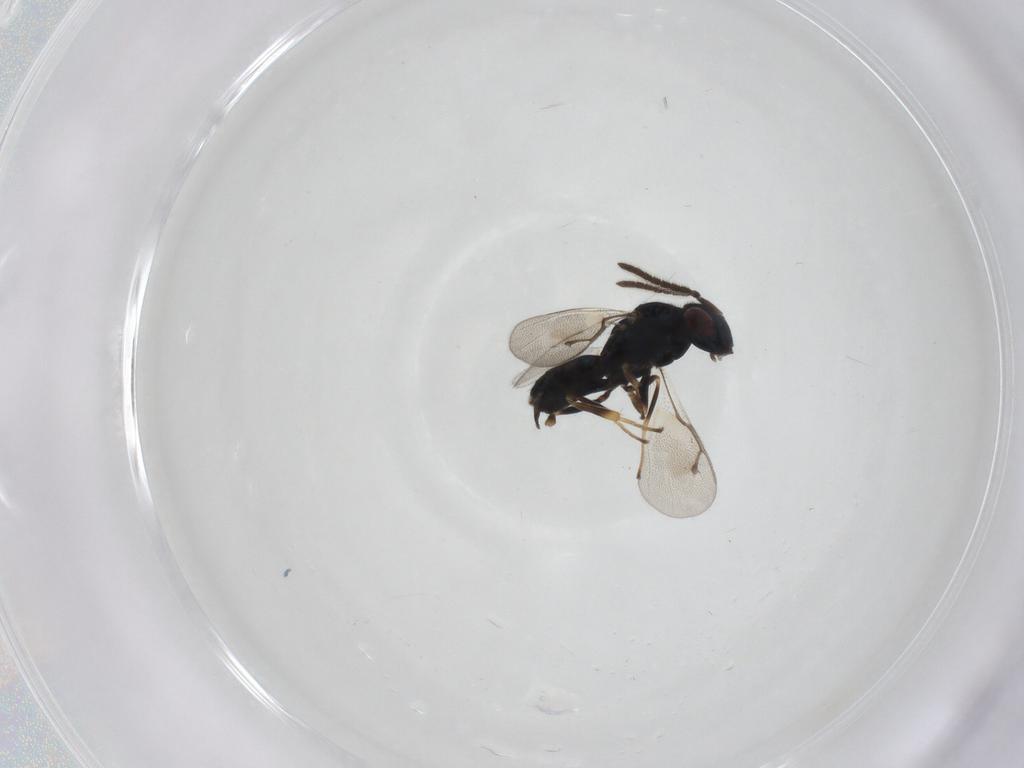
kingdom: Animalia
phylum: Arthropoda
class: Insecta
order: Hymenoptera
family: Pteromalidae
